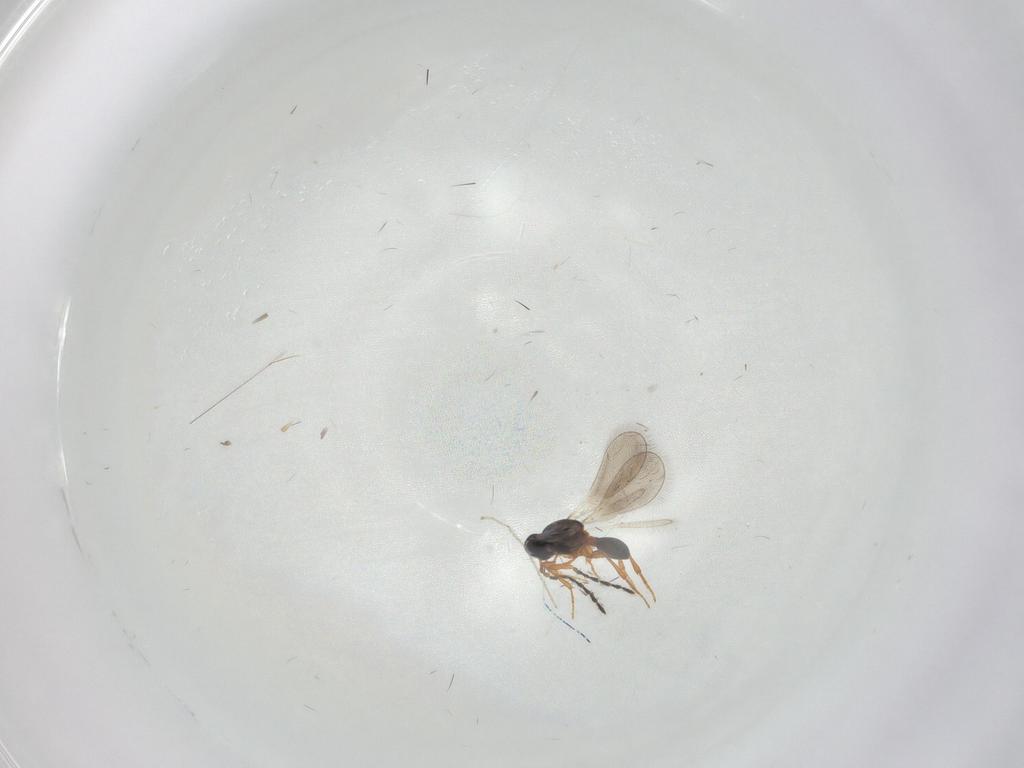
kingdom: Animalia
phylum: Arthropoda
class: Insecta
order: Hymenoptera
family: Platygastridae
